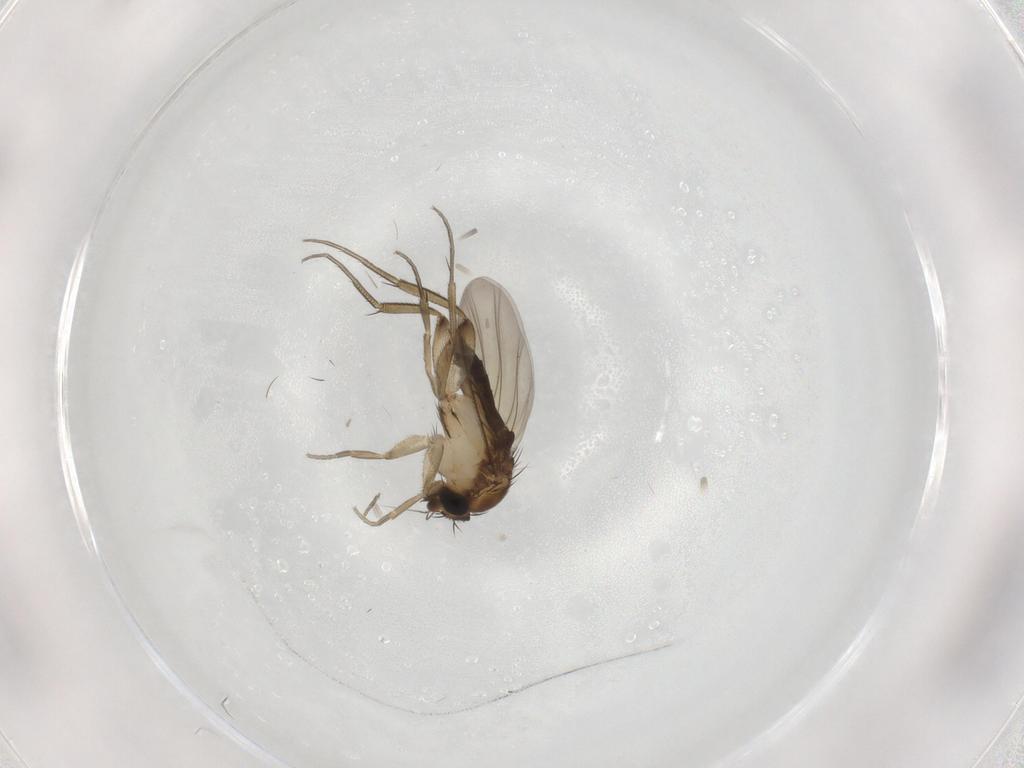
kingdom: Animalia
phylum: Arthropoda
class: Insecta
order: Diptera
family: Phoridae
